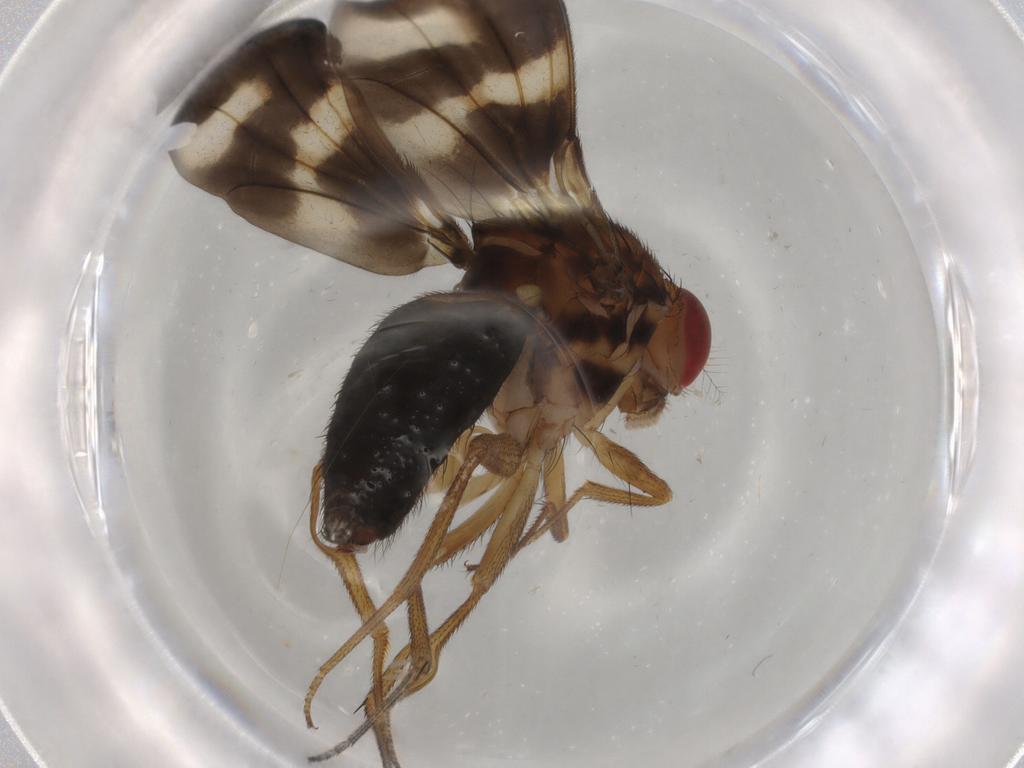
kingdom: Animalia
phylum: Arthropoda
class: Insecta
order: Diptera
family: Drosophilidae
